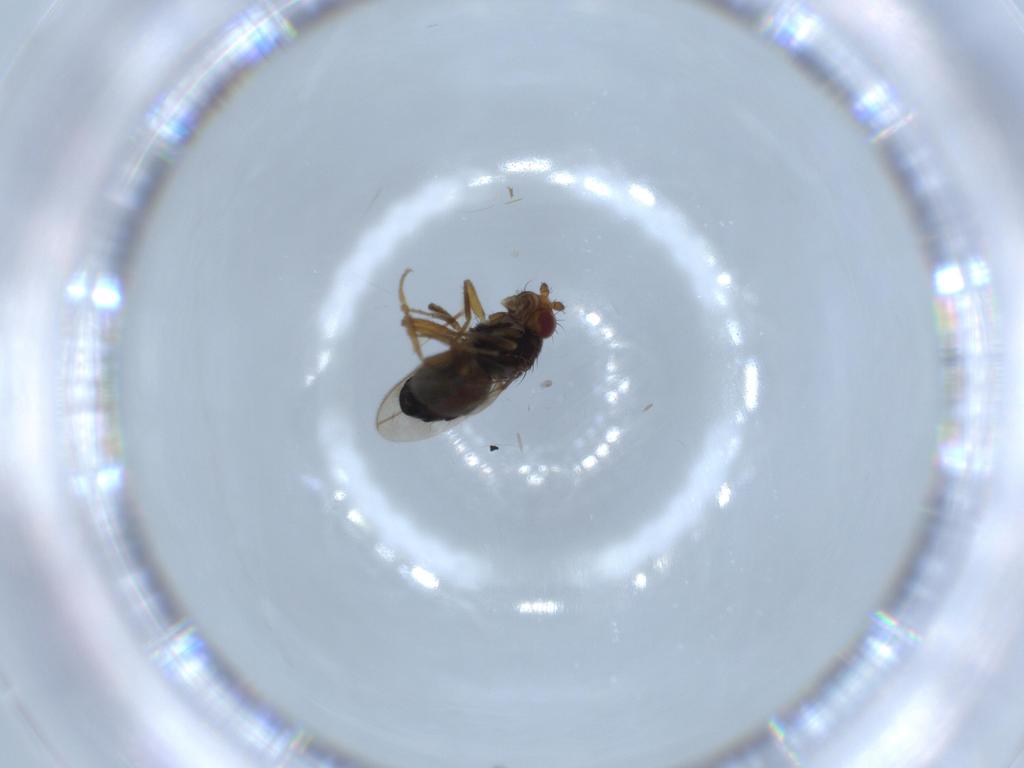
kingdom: Animalia
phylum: Arthropoda
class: Insecta
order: Diptera
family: Sphaeroceridae
